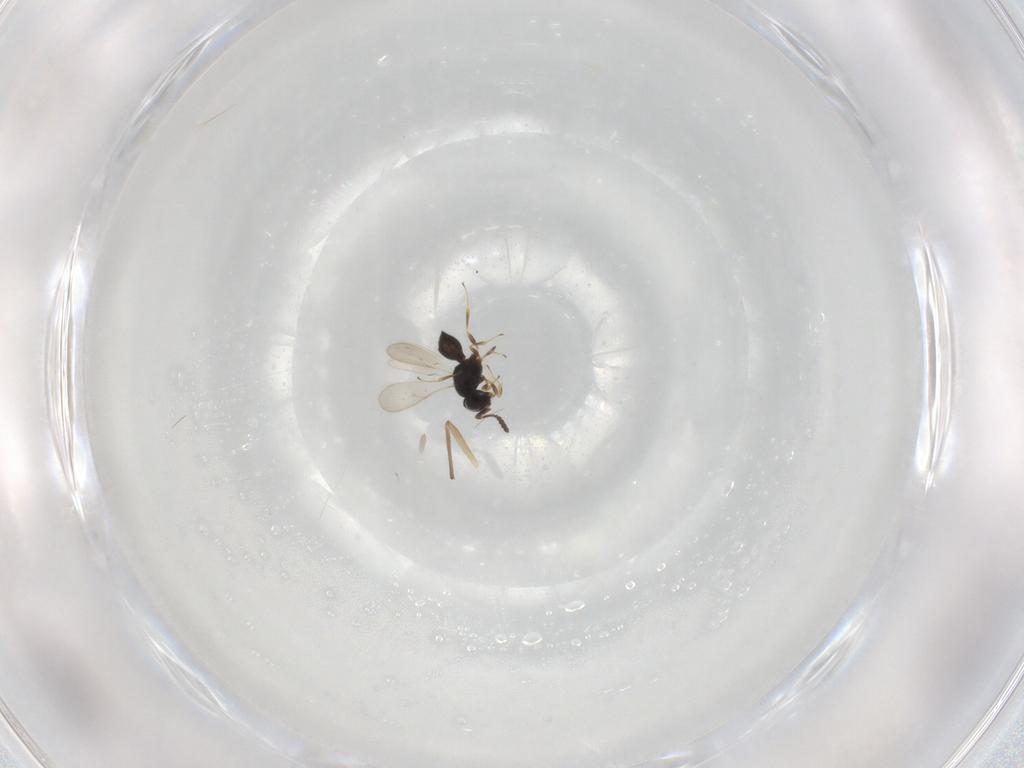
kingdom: Animalia
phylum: Arthropoda
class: Insecta
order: Hymenoptera
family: Scelionidae
